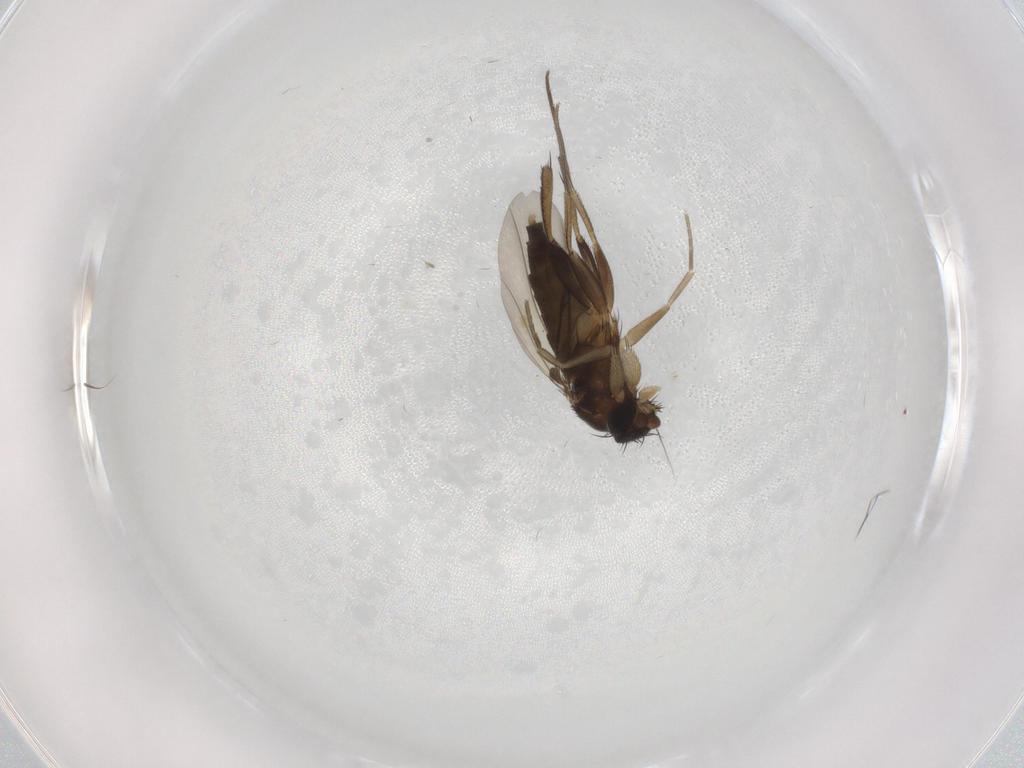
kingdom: Animalia
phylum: Arthropoda
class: Insecta
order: Diptera
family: Phoridae
